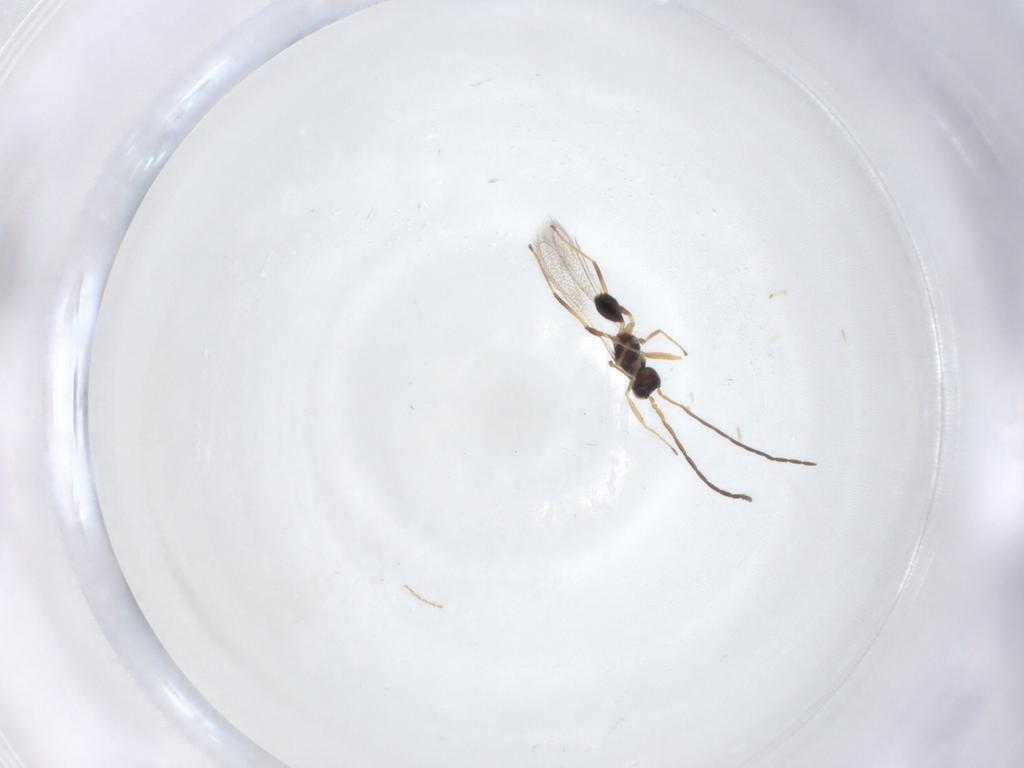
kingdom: Animalia
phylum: Arthropoda
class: Insecta
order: Hymenoptera
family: Mymaridae
